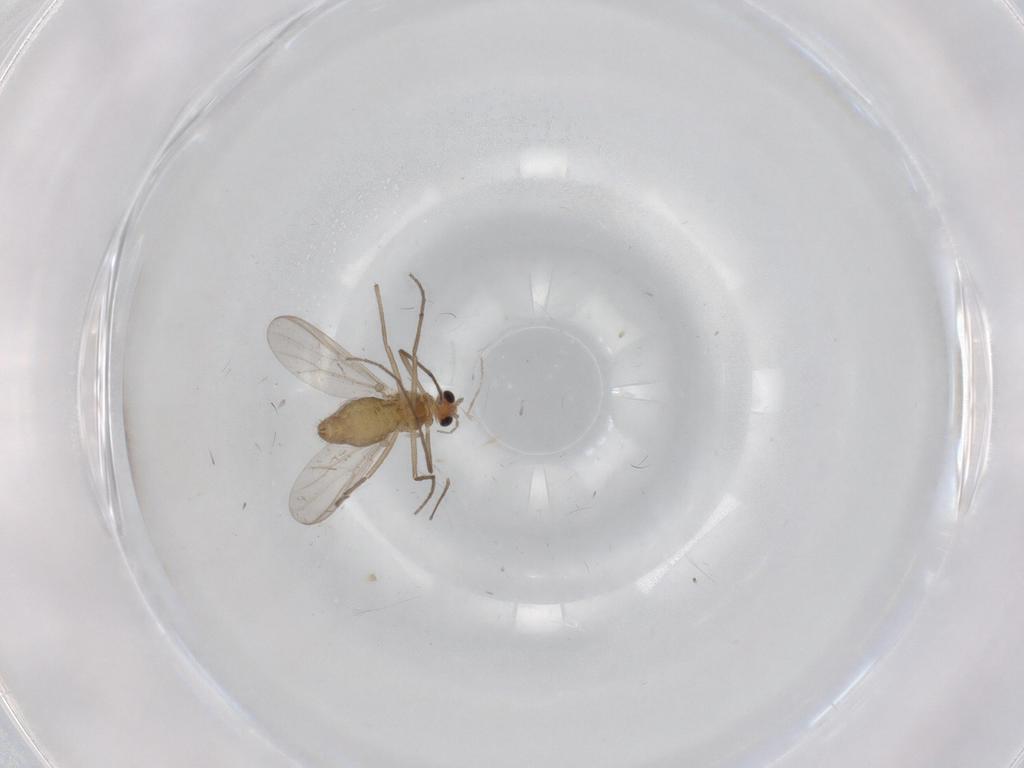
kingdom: Animalia
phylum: Arthropoda
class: Insecta
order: Diptera
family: Chironomidae
